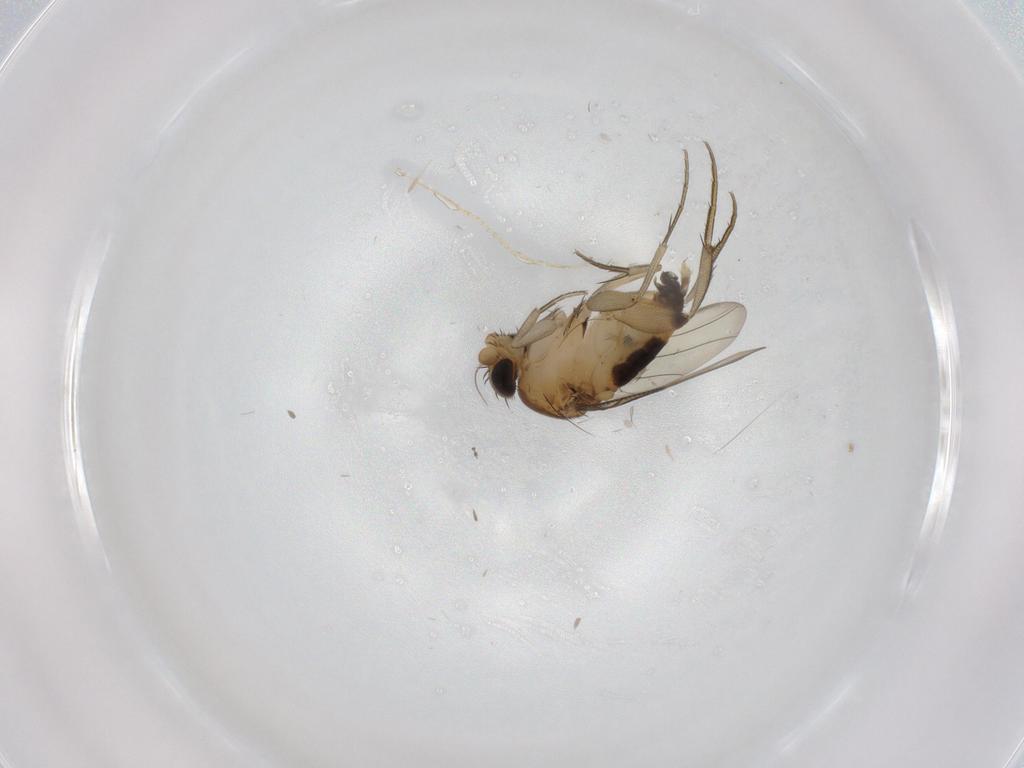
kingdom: Animalia
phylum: Arthropoda
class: Insecta
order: Diptera
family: Phoridae
